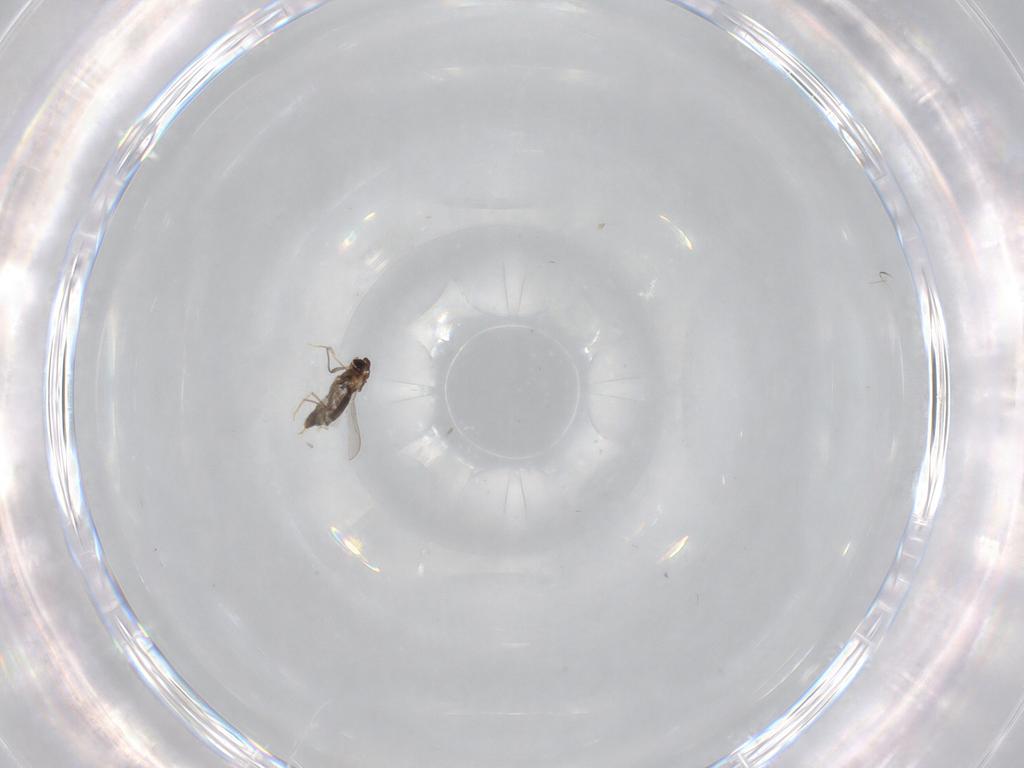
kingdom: Animalia
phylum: Arthropoda
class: Insecta
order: Diptera
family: Chironomidae
